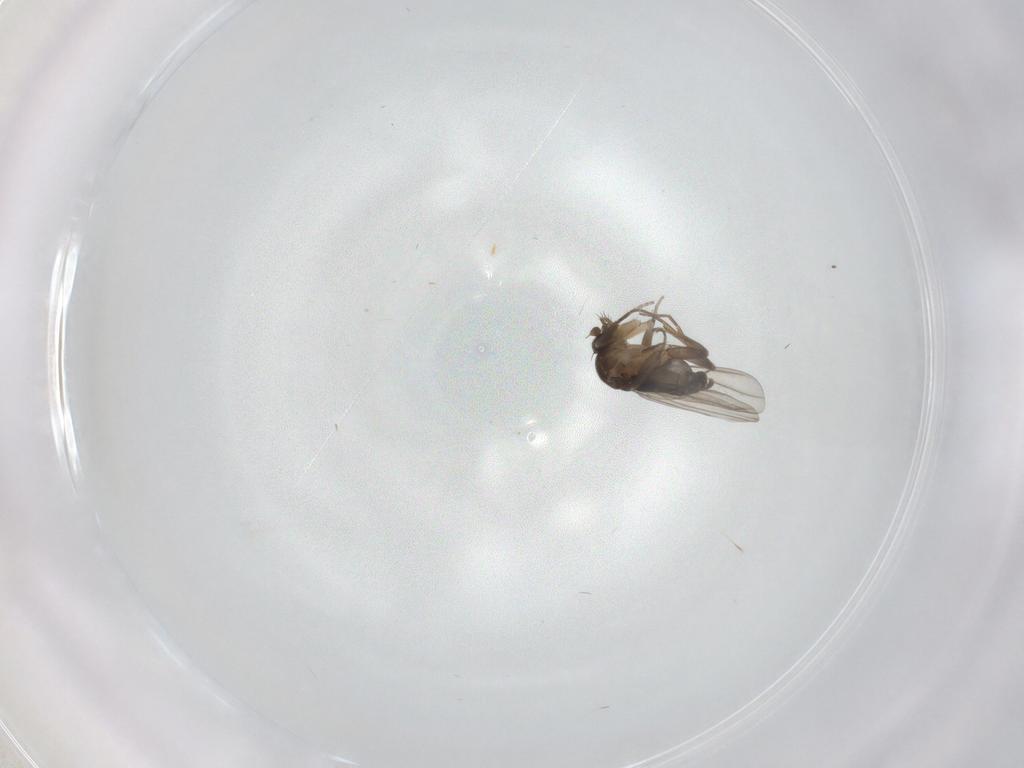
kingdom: Animalia
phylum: Arthropoda
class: Insecta
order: Diptera
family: Phoridae
